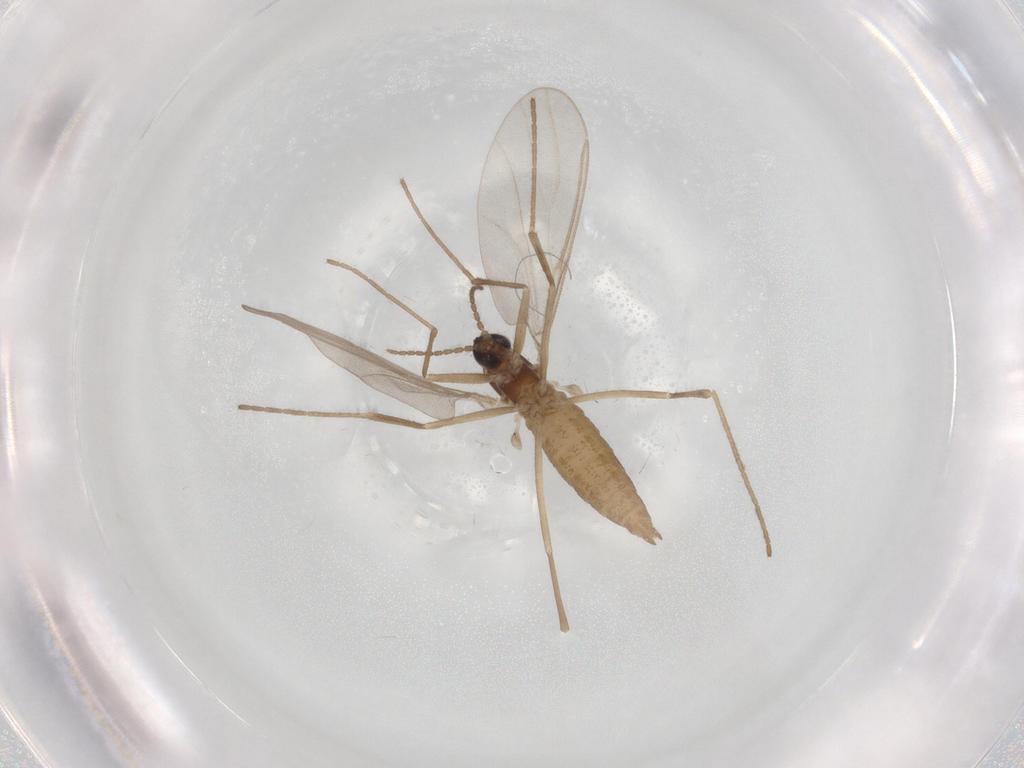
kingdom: Animalia
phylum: Arthropoda
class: Insecta
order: Diptera
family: Cecidomyiidae
